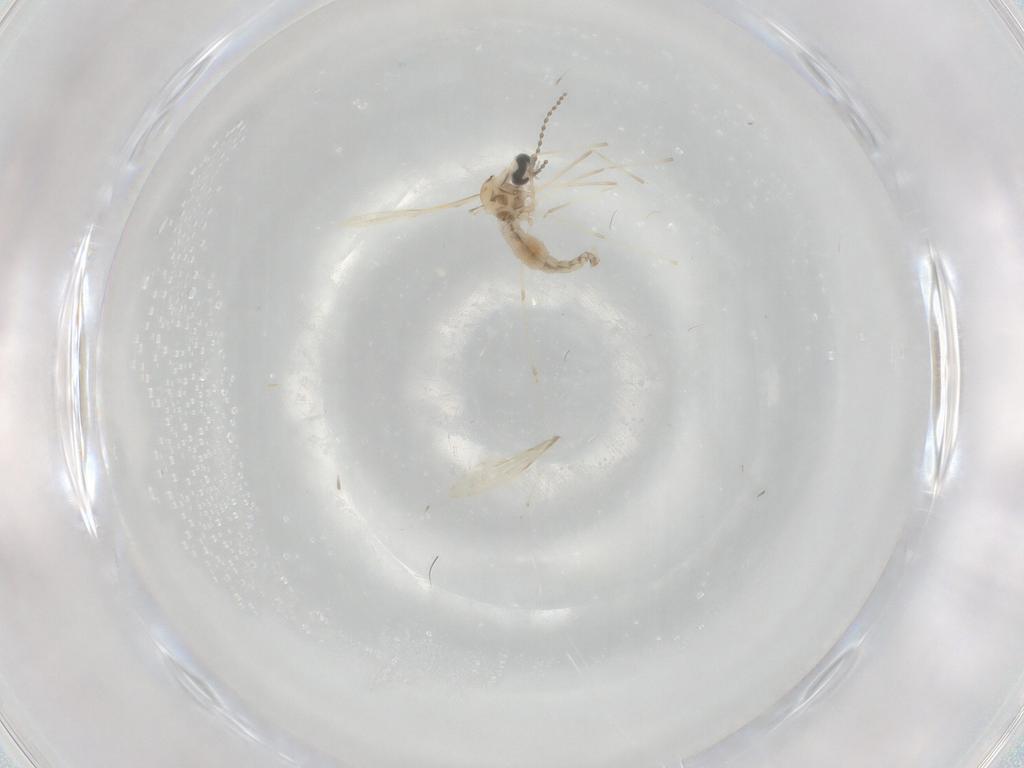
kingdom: Animalia
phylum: Arthropoda
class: Insecta
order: Diptera
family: Cecidomyiidae
